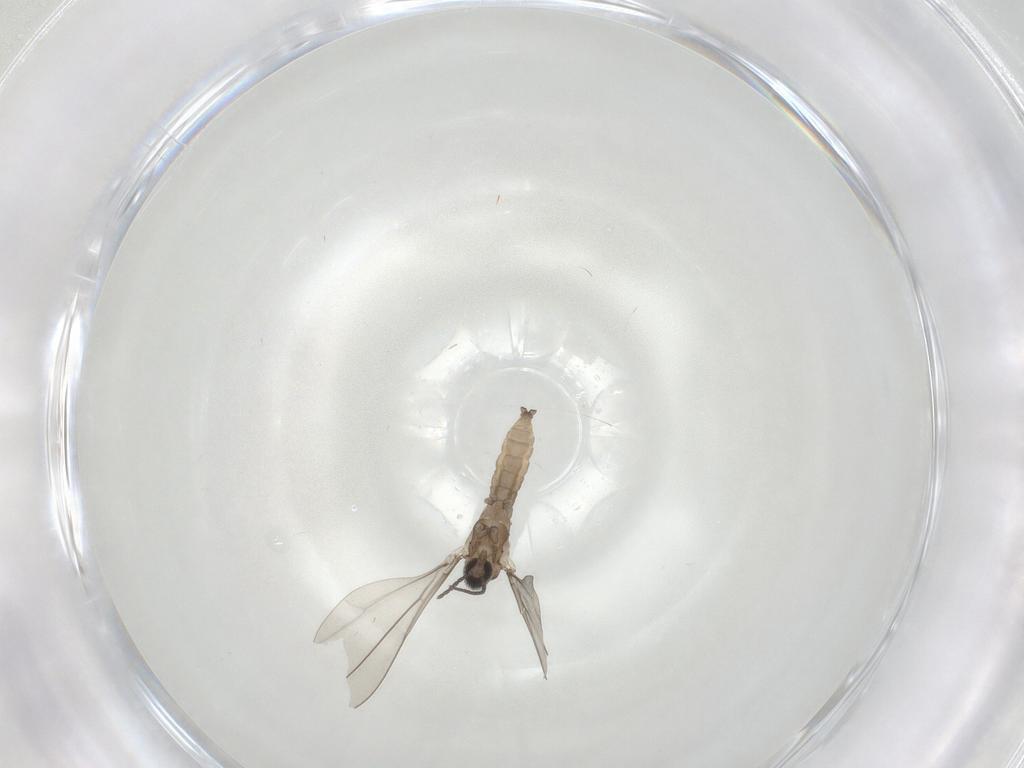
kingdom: Animalia
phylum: Arthropoda
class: Insecta
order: Diptera
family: Cecidomyiidae
